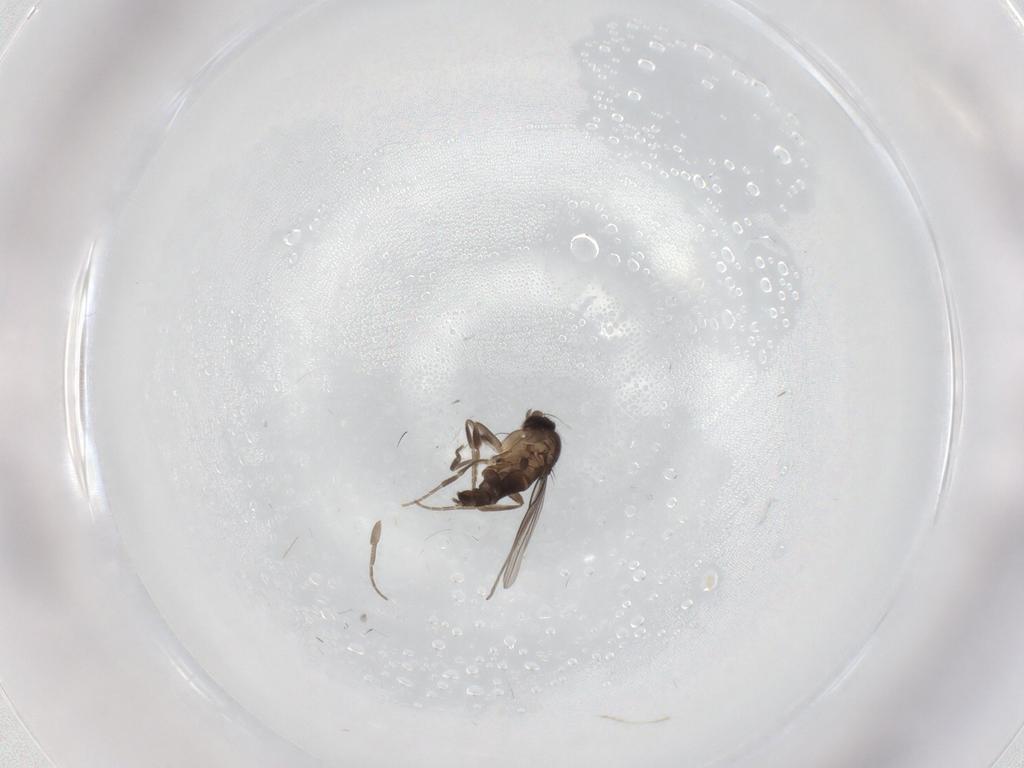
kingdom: Animalia
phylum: Arthropoda
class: Insecta
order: Diptera
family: Phoridae
